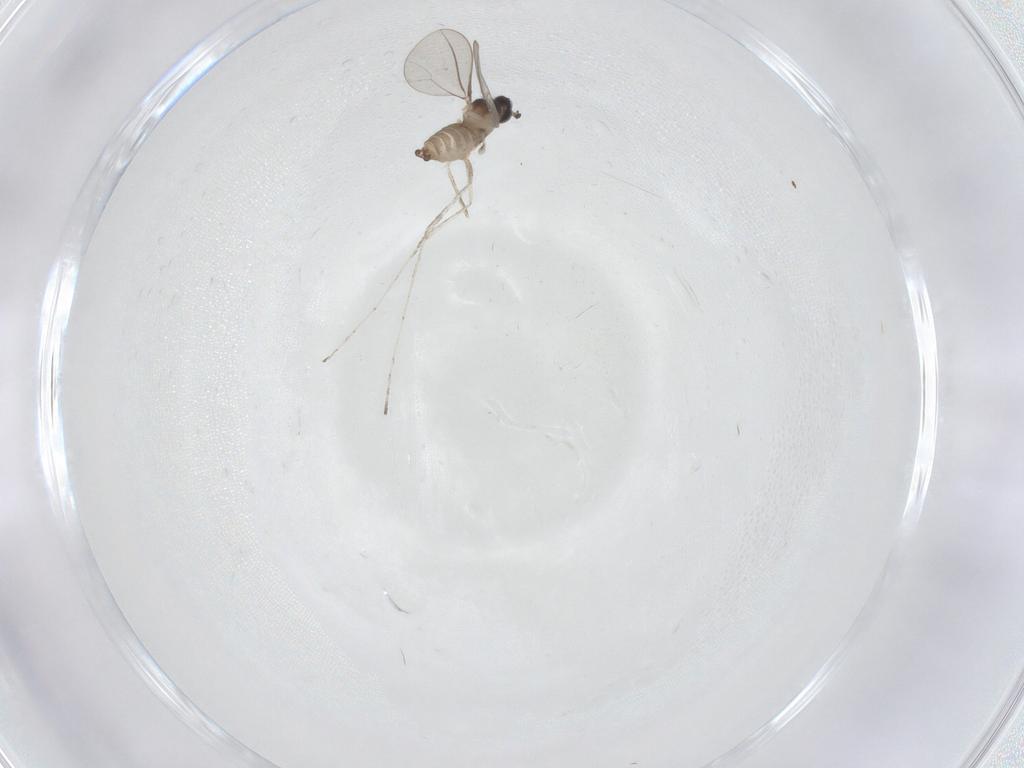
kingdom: Animalia
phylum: Arthropoda
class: Insecta
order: Diptera
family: Cecidomyiidae
